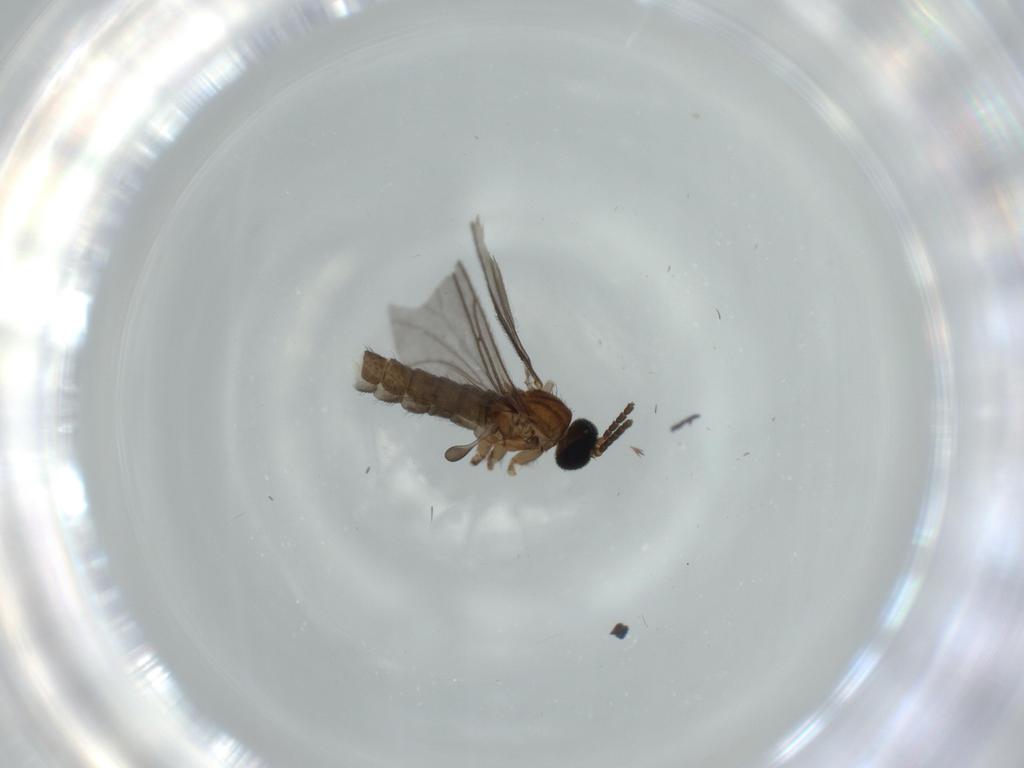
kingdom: Animalia
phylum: Arthropoda
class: Insecta
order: Diptera
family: Sciaridae
